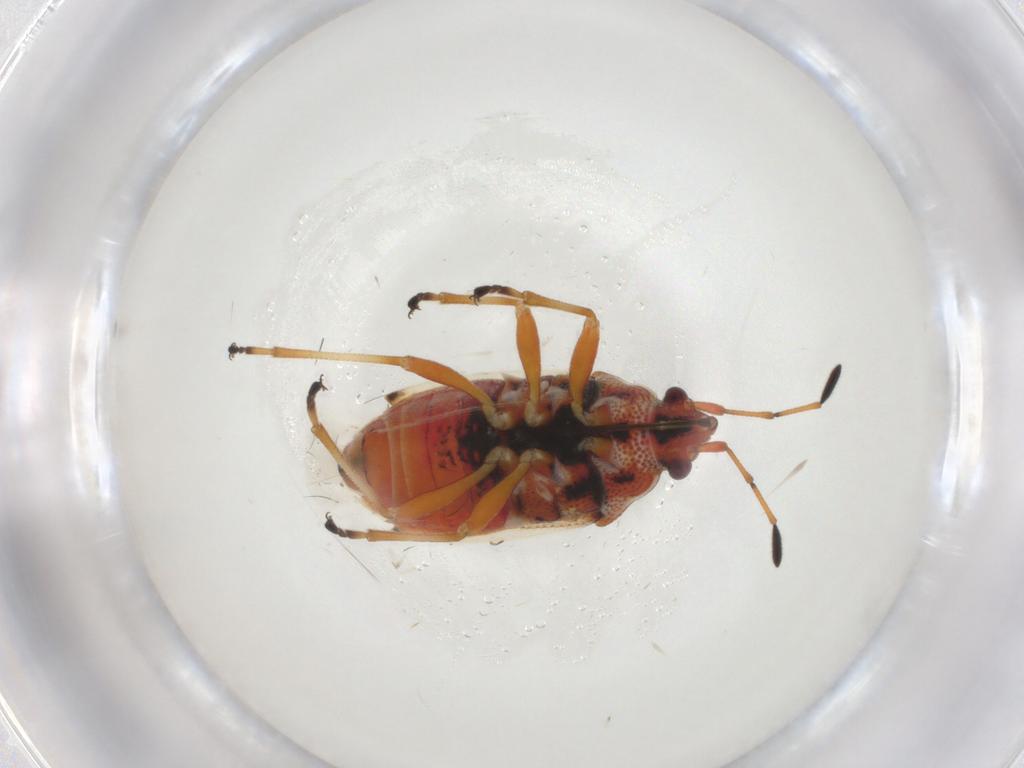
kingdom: Animalia
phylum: Arthropoda
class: Insecta
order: Hemiptera
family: Lygaeidae
